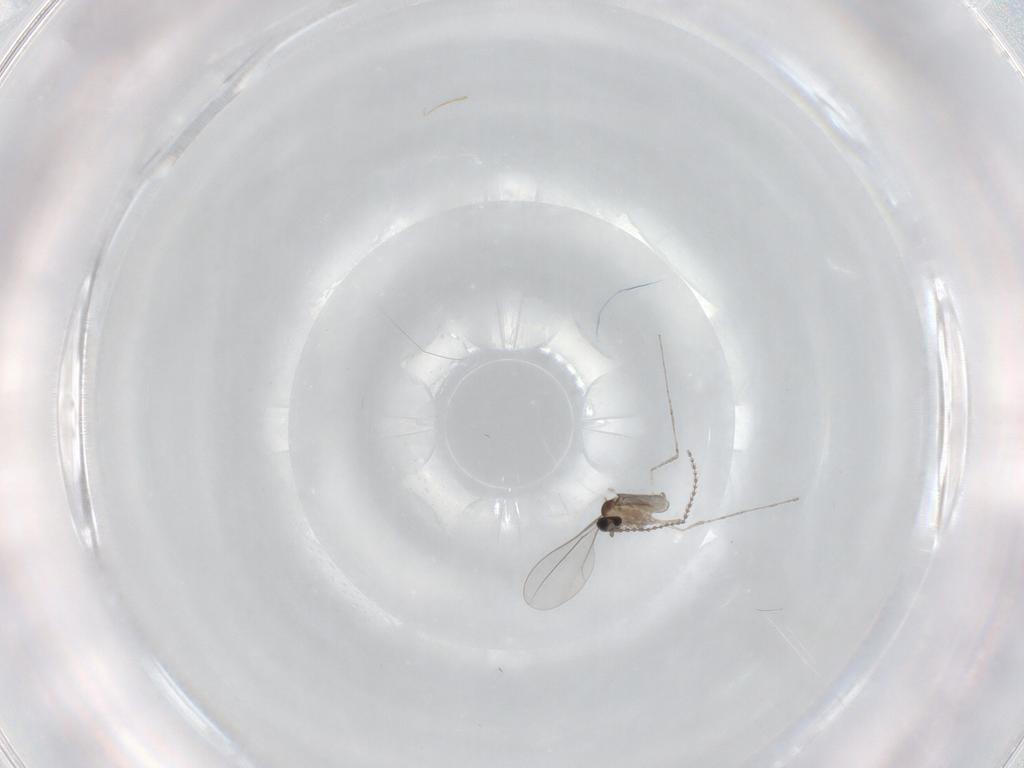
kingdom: Animalia
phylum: Arthropoda
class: Insecta
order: Diptera
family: Cecidomyiidae
